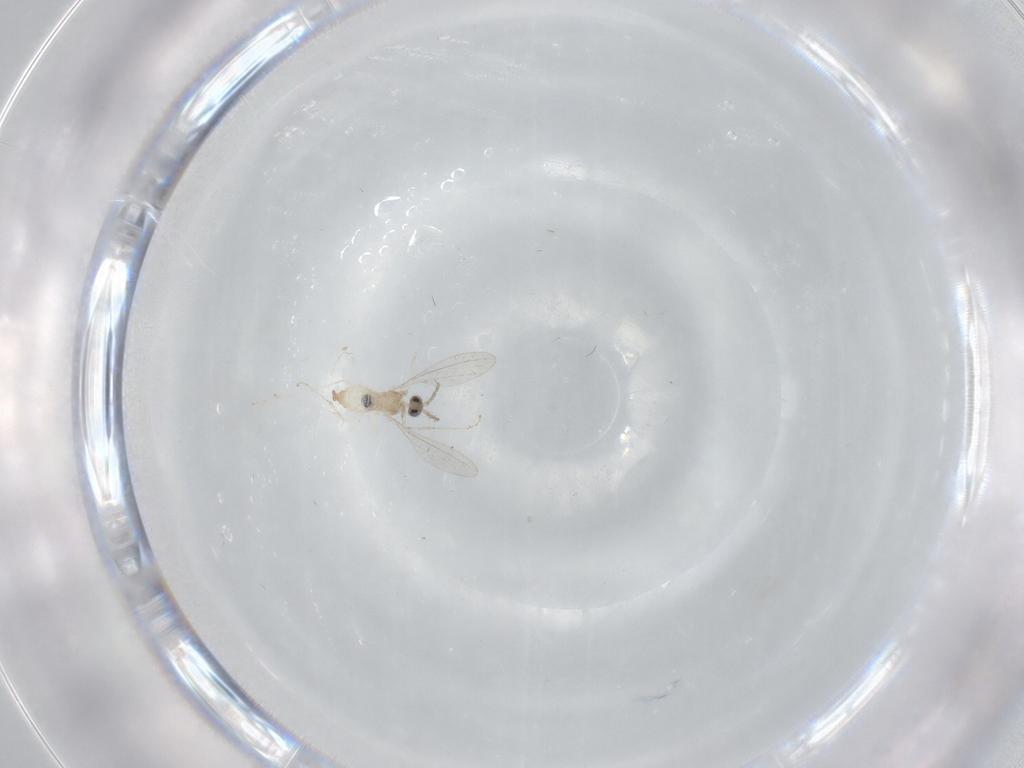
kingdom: Animalia
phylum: Arthropoda
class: Insecta
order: Diptera
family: Cecidomyiidae
